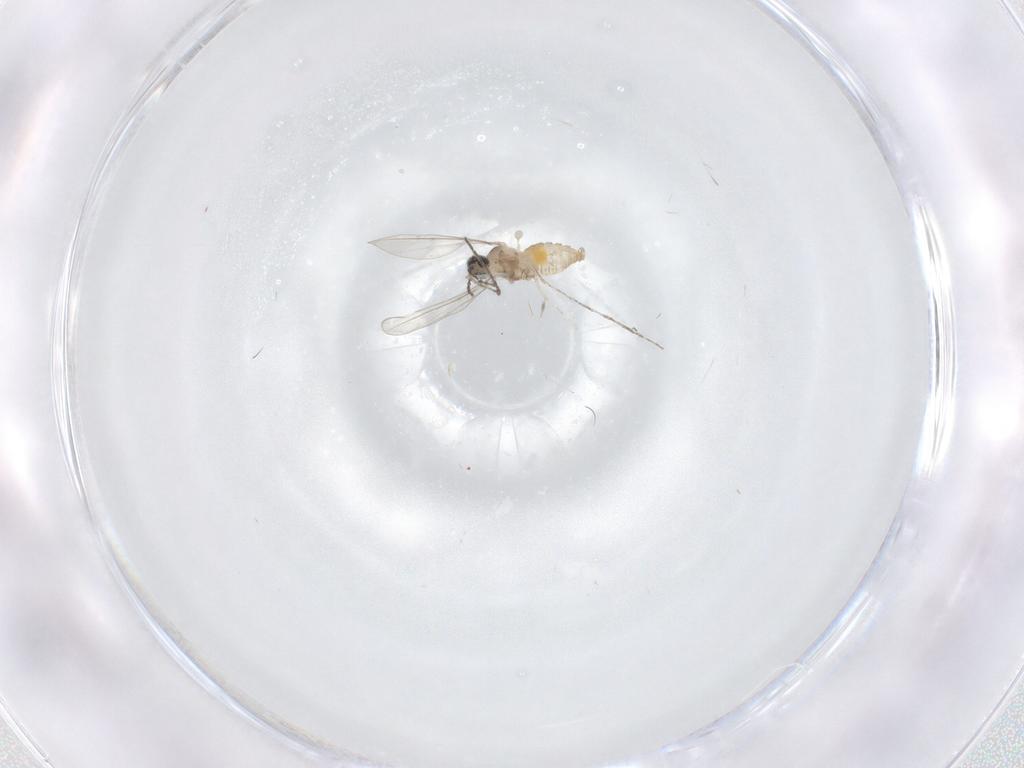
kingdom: Animalia
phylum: Arthropoda
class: Insecta
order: Diptera
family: Cecidomyiidae
